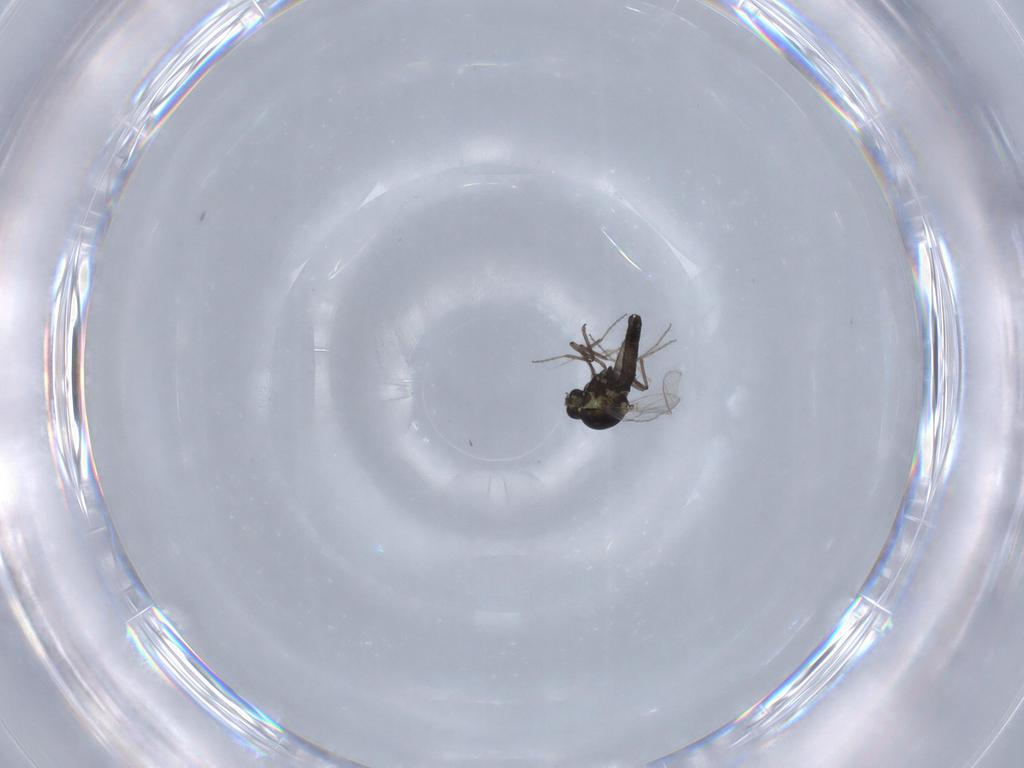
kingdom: Animalia
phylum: Arthropoda
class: Insecta
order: Diptera
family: Ceratopogonidae
